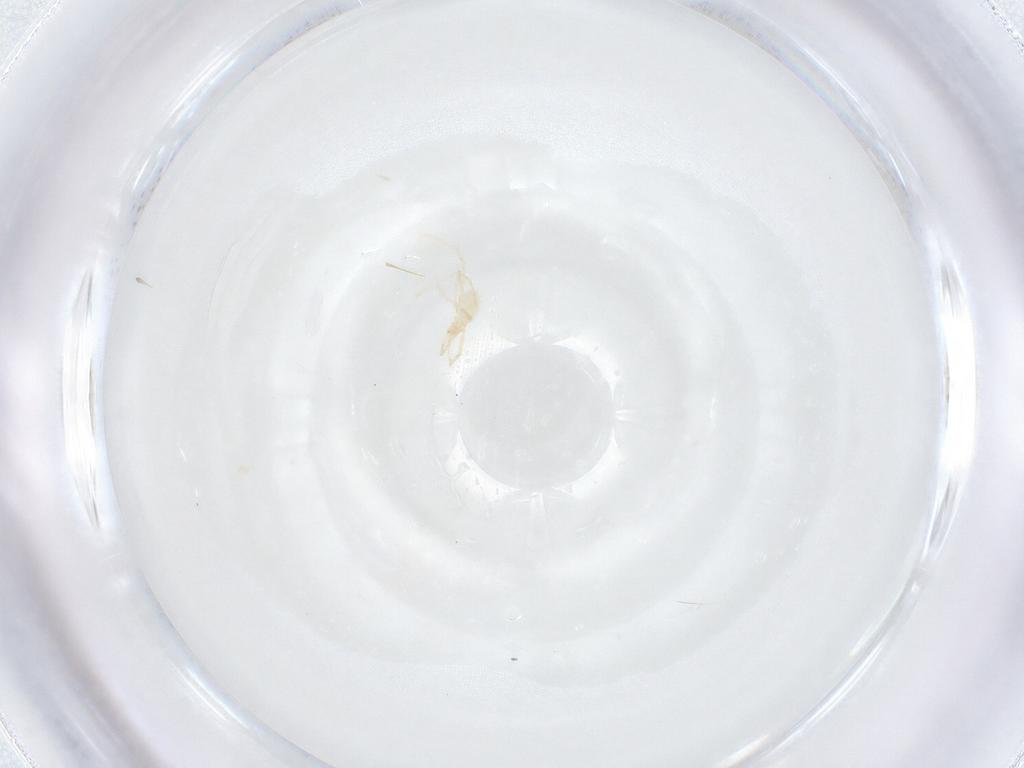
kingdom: Animalia
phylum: Arthropoda
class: Arachnida
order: Trombidiformes
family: Erythraeidae
